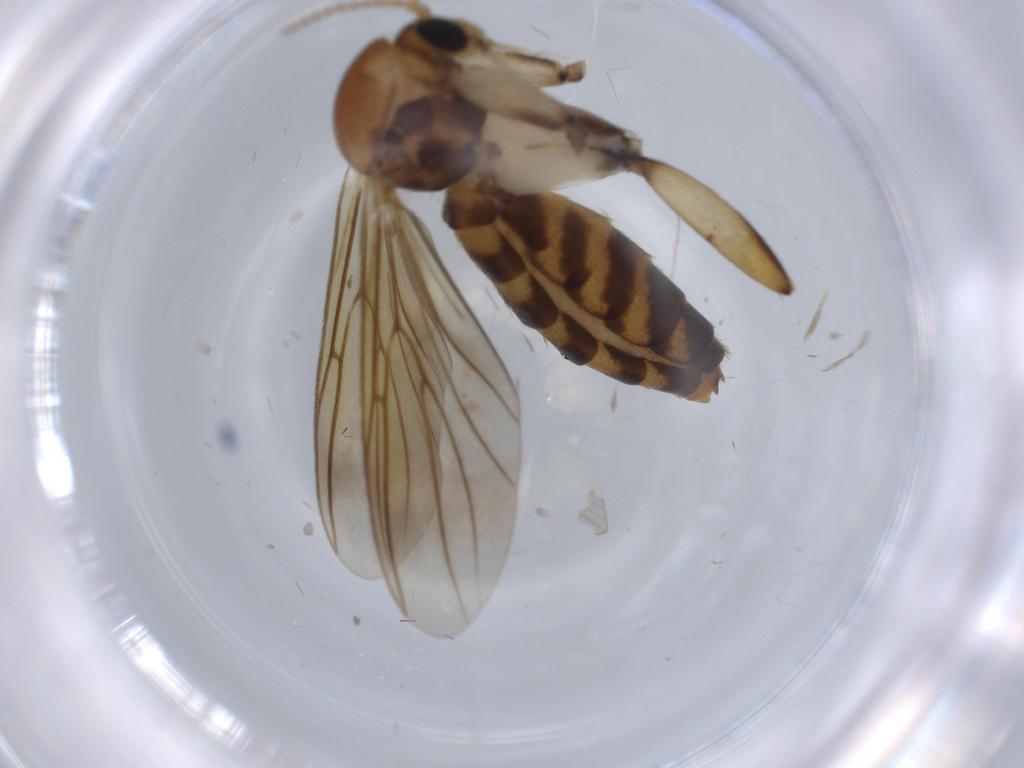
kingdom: Animalia
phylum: Arthropoda
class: Insecta
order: Diptera
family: Mycetophilidae
